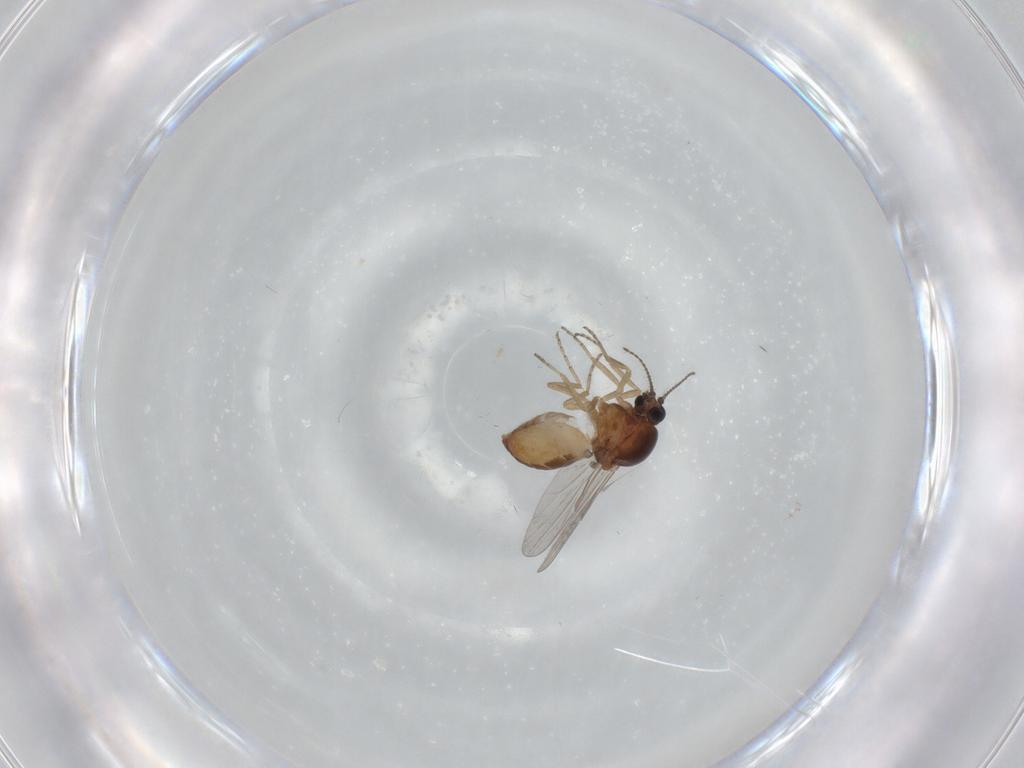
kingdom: Animalia
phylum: Arthropoda
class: Insecta
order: Diptera
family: Ceratopogonidae
